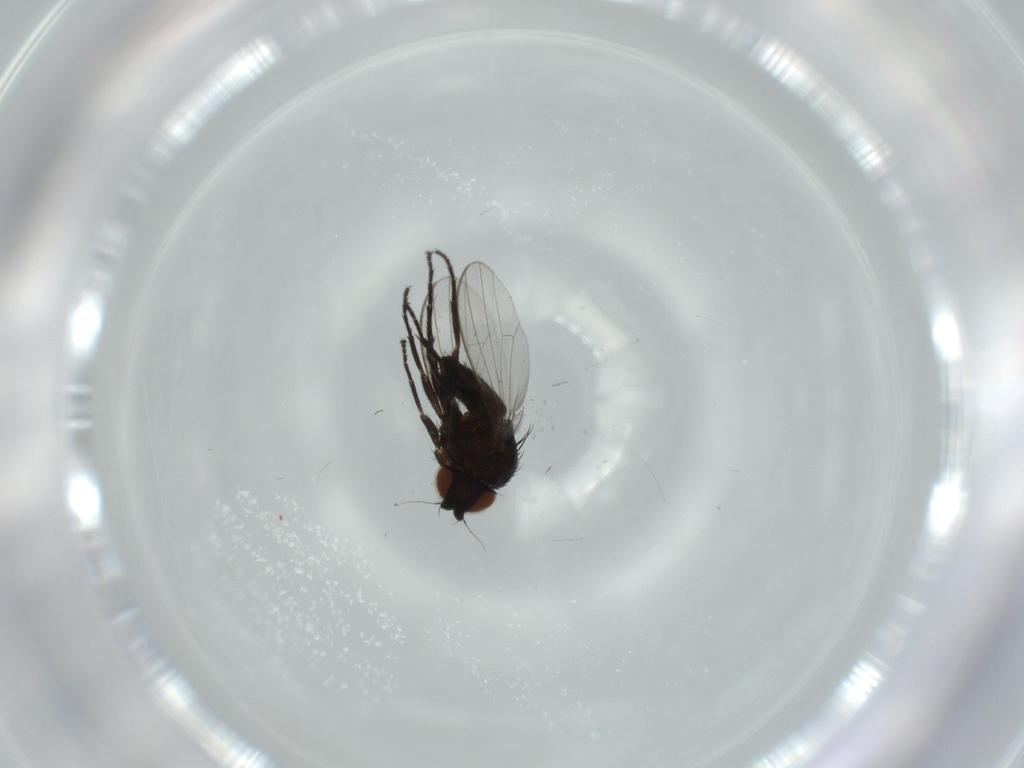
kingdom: Animalia
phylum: Arthropoda
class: Insecta
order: Diptera
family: Milichiidae
